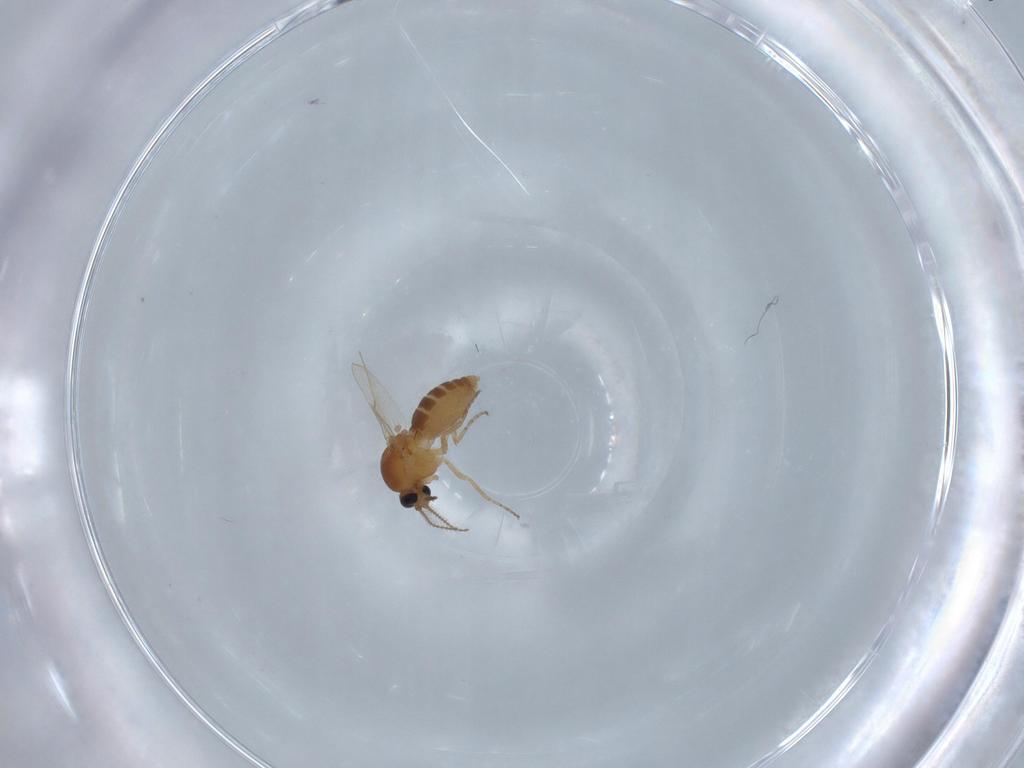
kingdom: Animalia
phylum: Arthropoda
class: Insecta
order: Diptera
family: Ceratopogonidae
